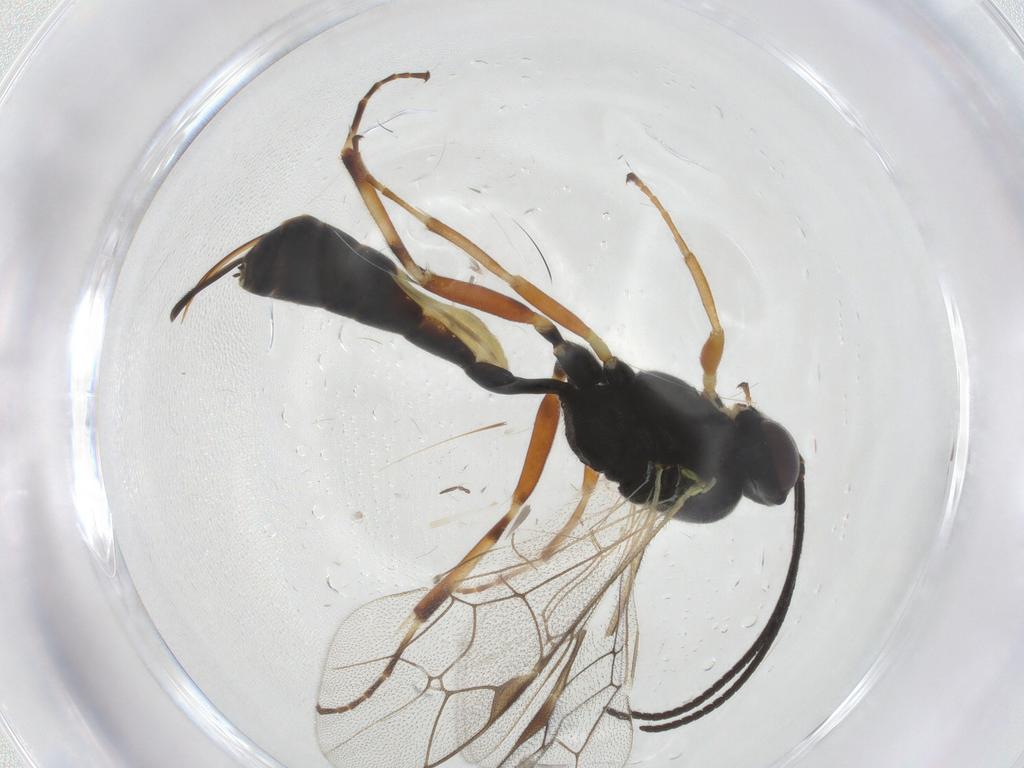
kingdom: Animalia
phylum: Arthropoda
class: Insecta
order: Hymenoptera
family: Ichneumonidae
